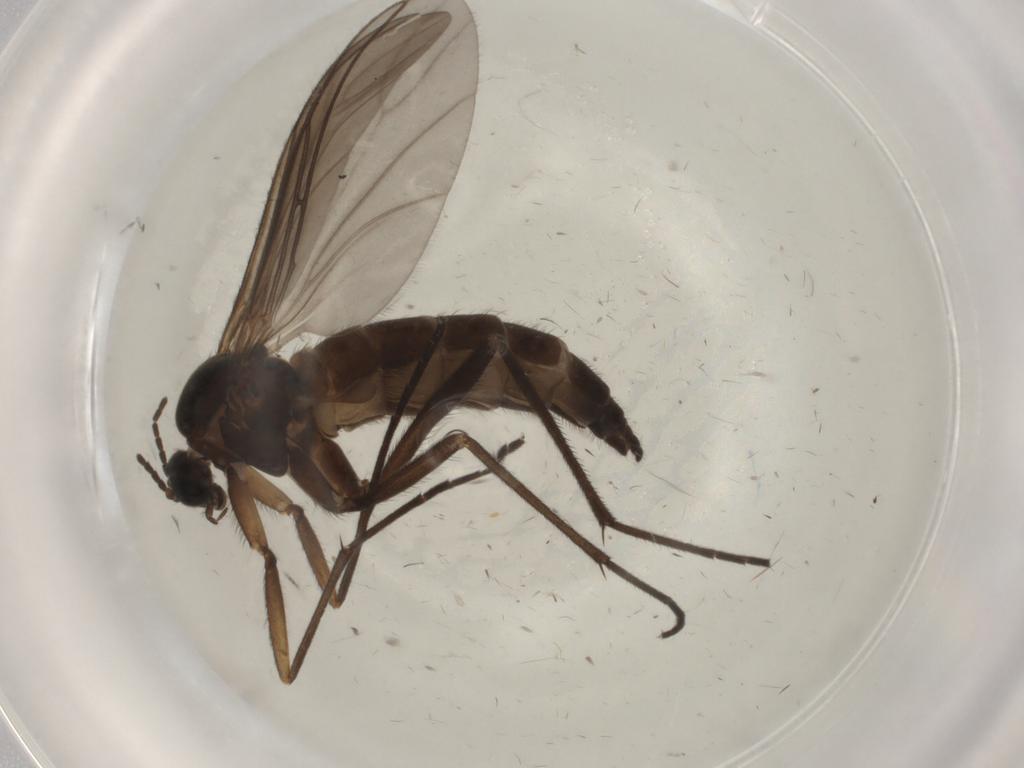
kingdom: Animalia
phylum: Arthropoda
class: Insecta
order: Diptera
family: Sciaridae
